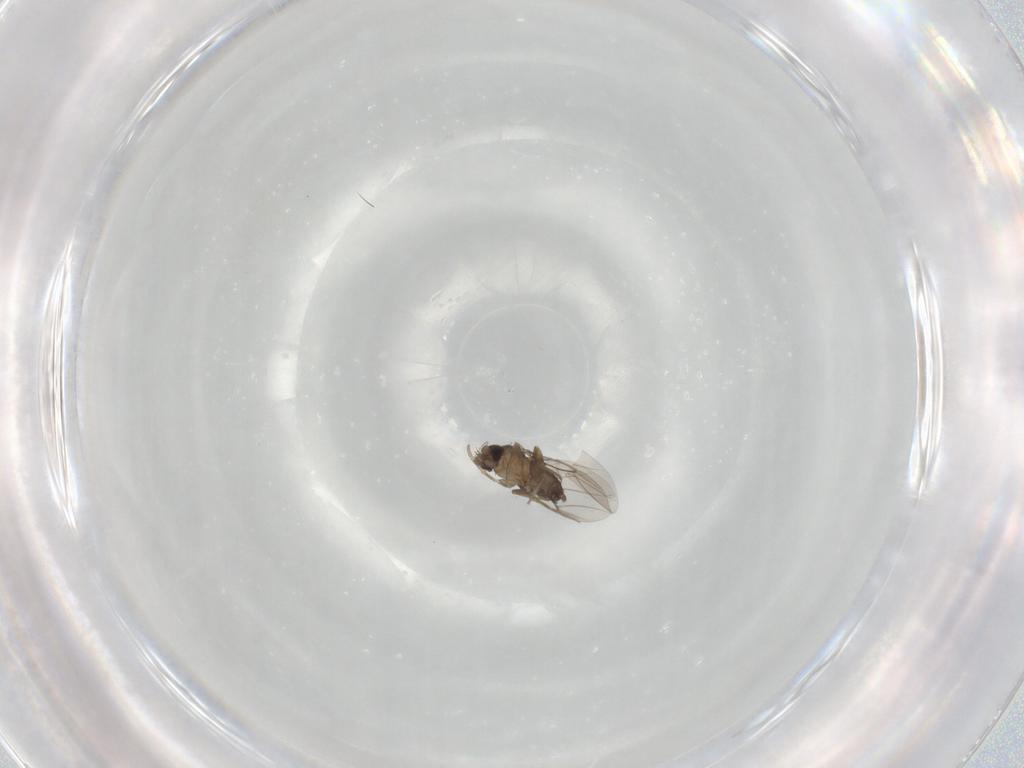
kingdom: Animalia
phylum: Arthropoda
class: Insecta
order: Diptera
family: Phoridae
